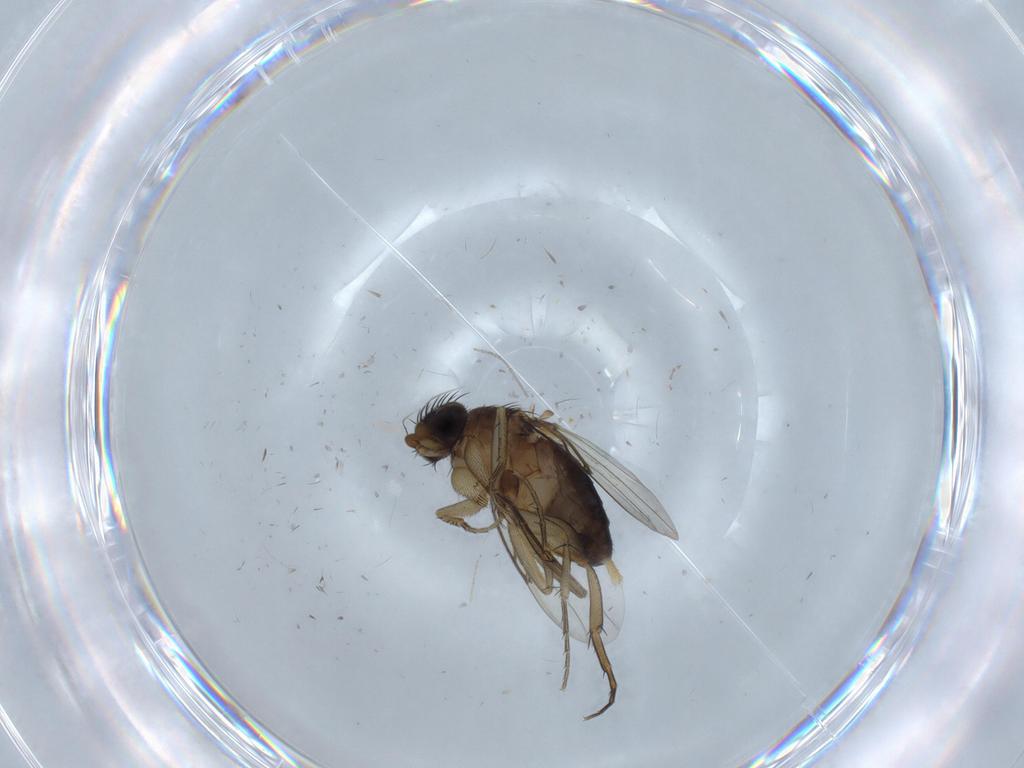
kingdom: Animalia
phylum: Arthropoda
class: Insecta
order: Diptera
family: Phoridae
